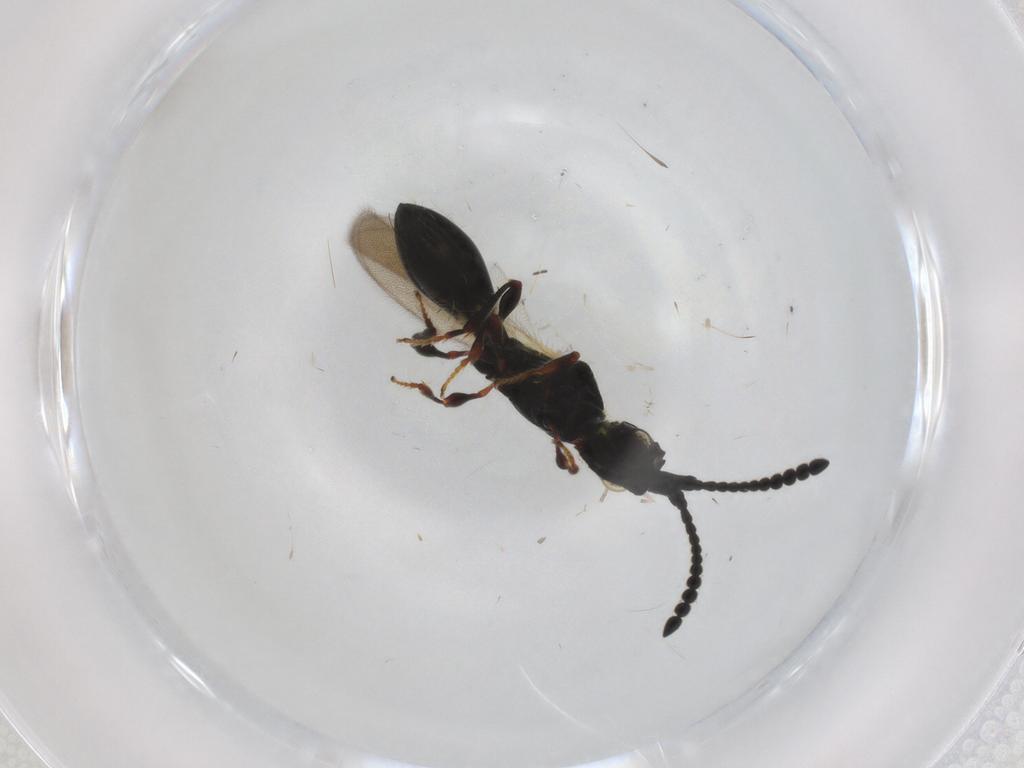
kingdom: Animalia
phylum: Arthropoda
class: Insecta
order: Hymenoptera
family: Diapriidae
